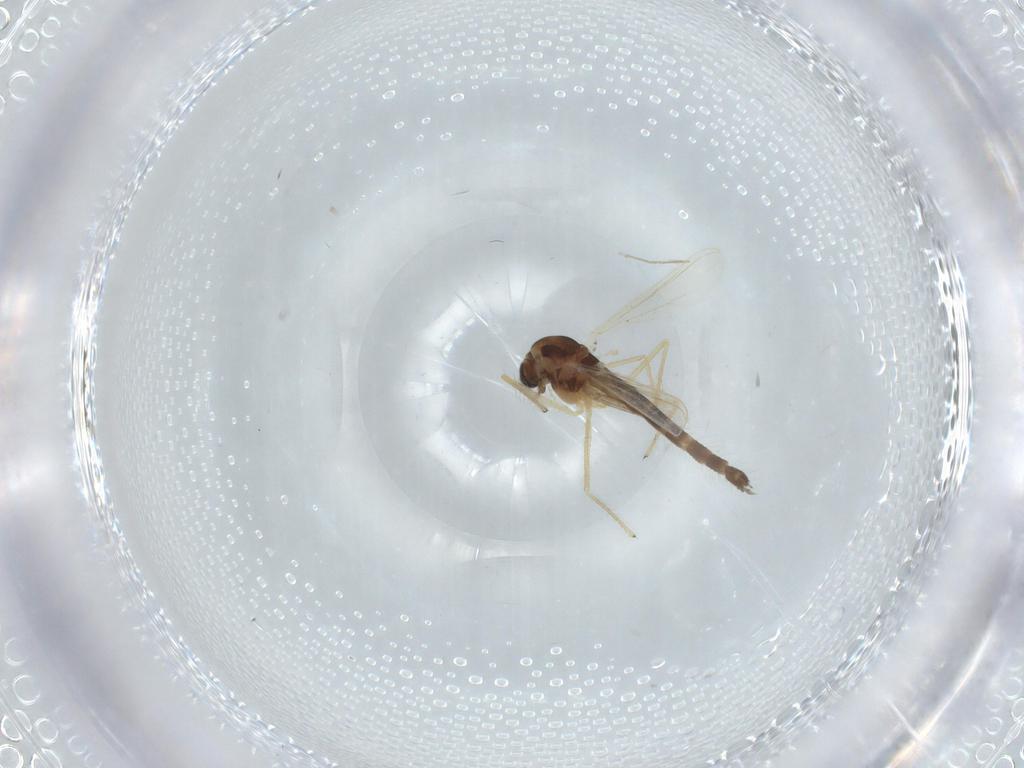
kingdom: Animalia
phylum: Arthropoda
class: Insecta
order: Diptera
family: Chironomidae
